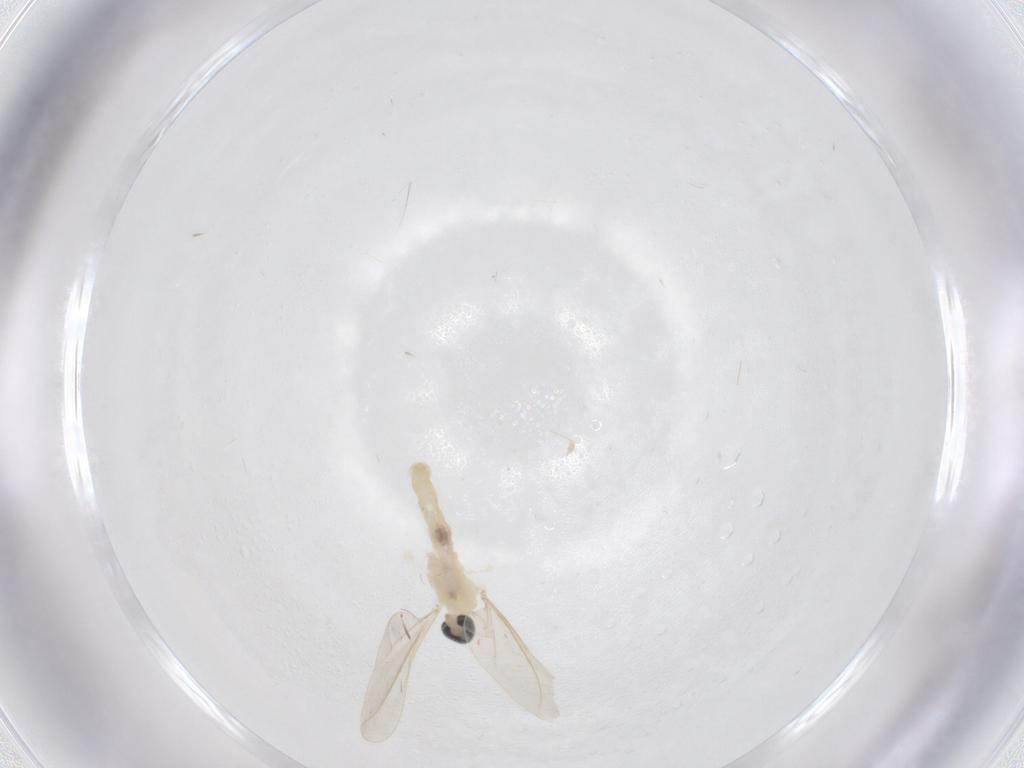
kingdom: Animalia
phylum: Arthropoda
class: Insecta
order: Diptera
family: Cecidomyiidae
